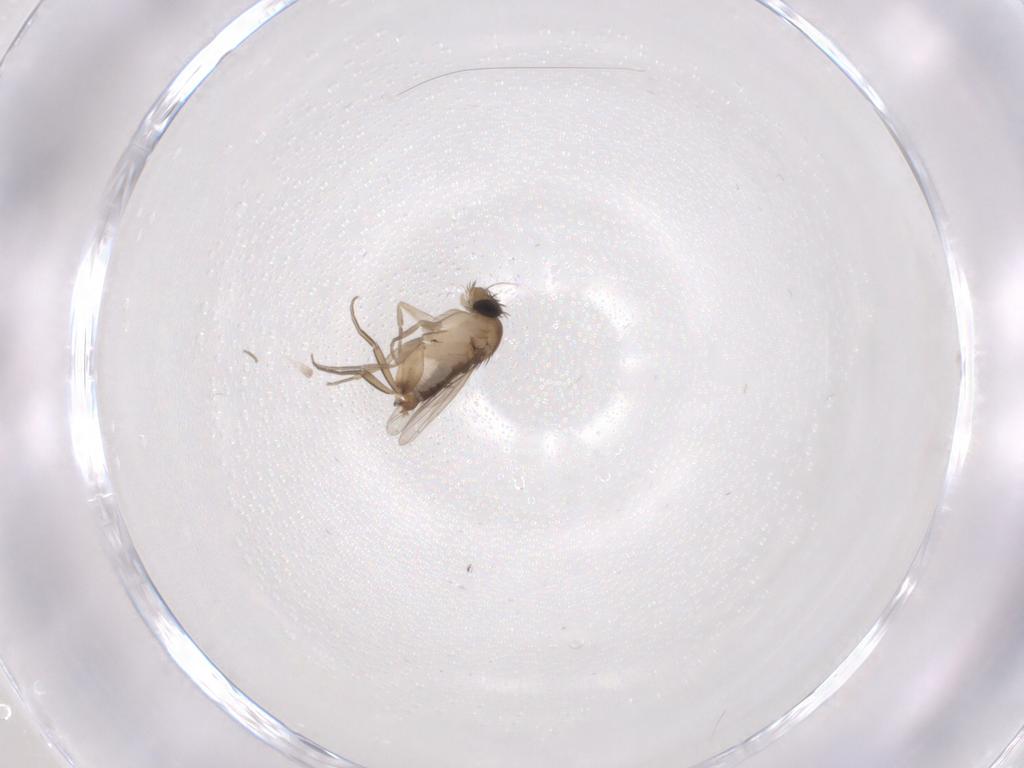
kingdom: Animalia
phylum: Arthropoda
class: Insecta
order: Diptera
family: Phoridae
